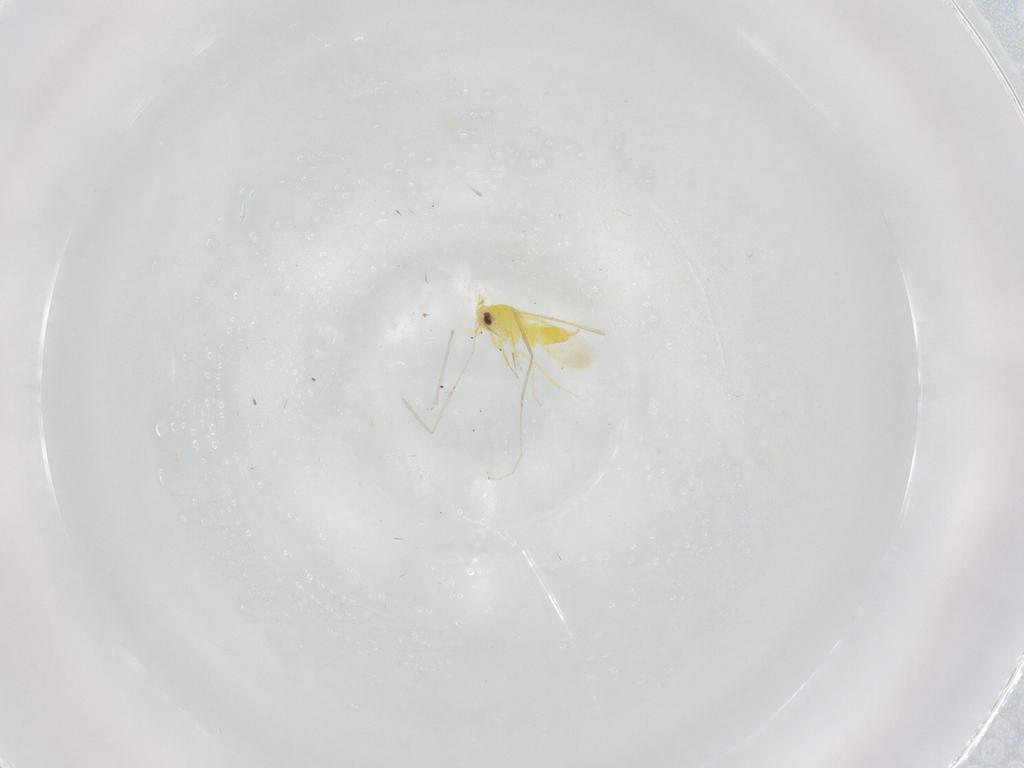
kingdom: Animalia
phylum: Arthropoda
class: Insecta
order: Hemiptera
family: Aleyrodidae
